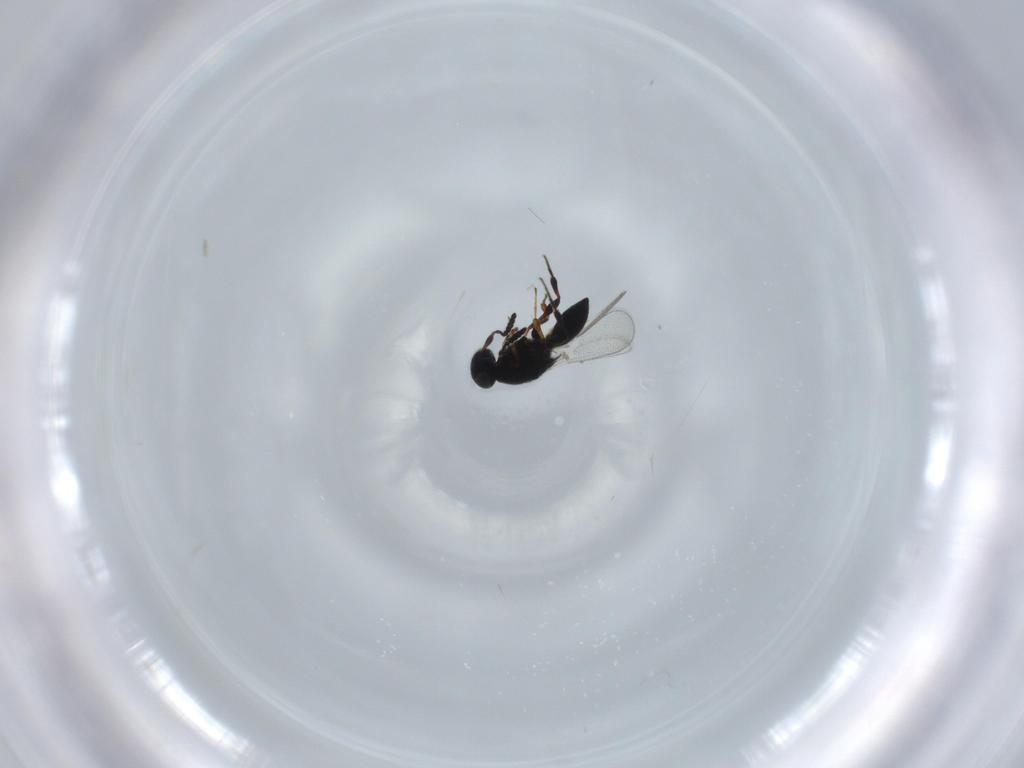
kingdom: Animalia
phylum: Arthropoda
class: Insecta
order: Hymenoptera
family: Platygastridae
